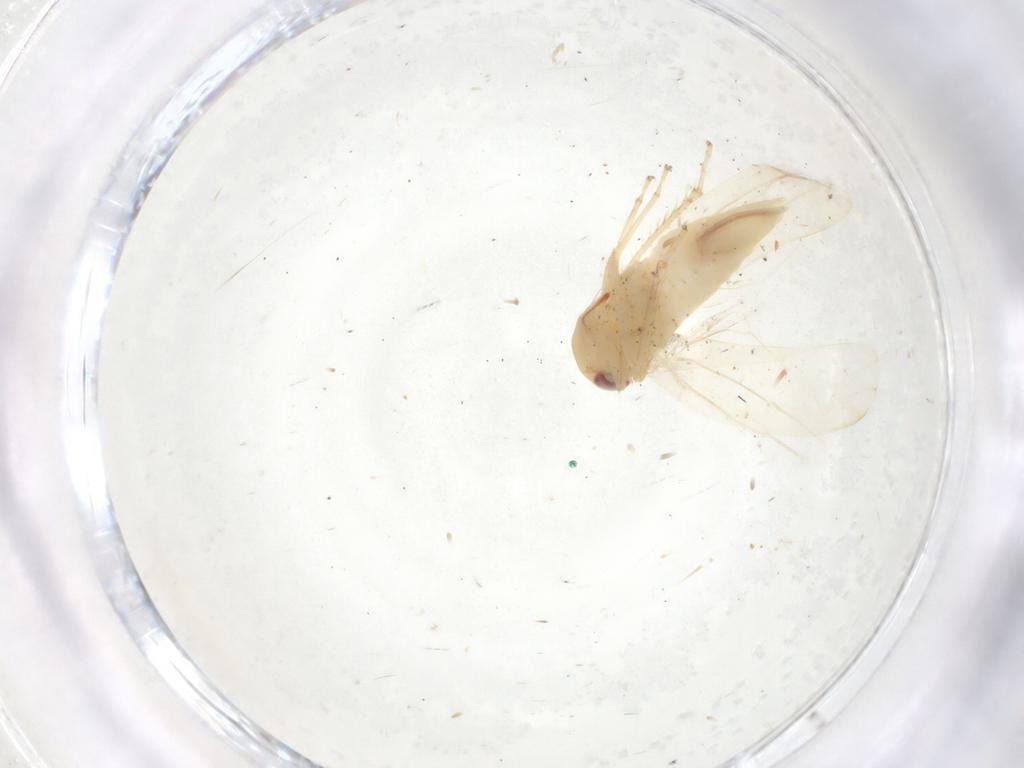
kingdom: Animalia
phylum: Arthropoda
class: Insecta
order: Hemiptera
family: Cicadellidae
